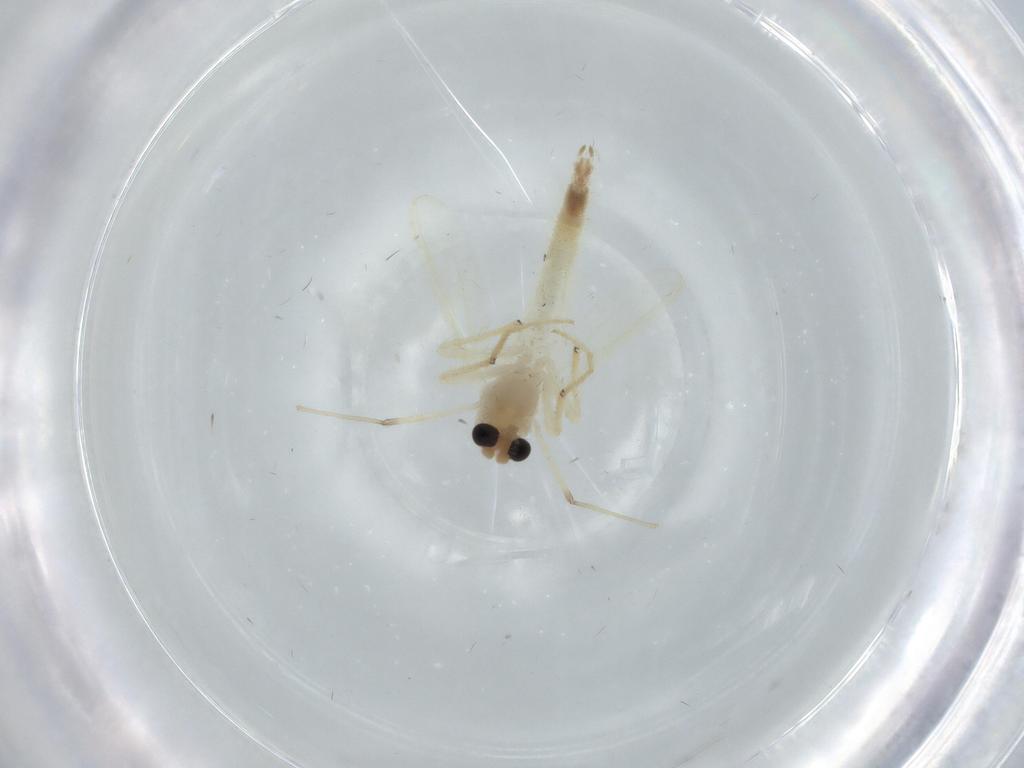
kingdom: Animalia
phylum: Arthropoda
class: Insecta
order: Diptera
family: Chironomidae
